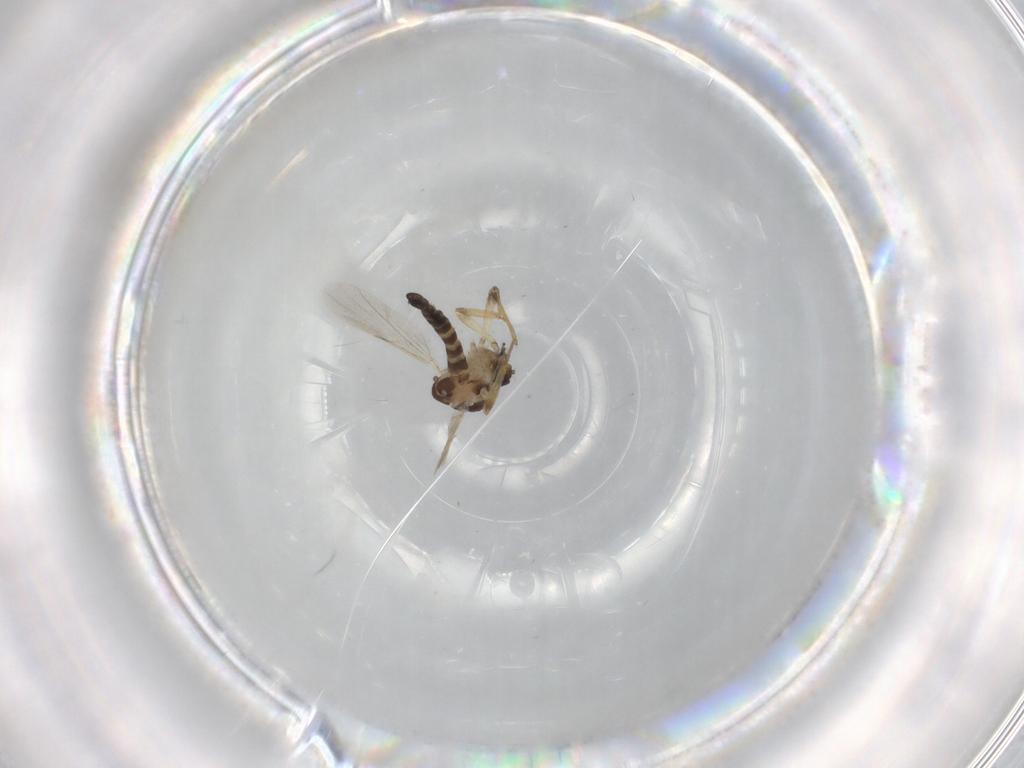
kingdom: Animalia
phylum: Arthropoda
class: Insecta
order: Diptera
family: Ceratopogonidae
